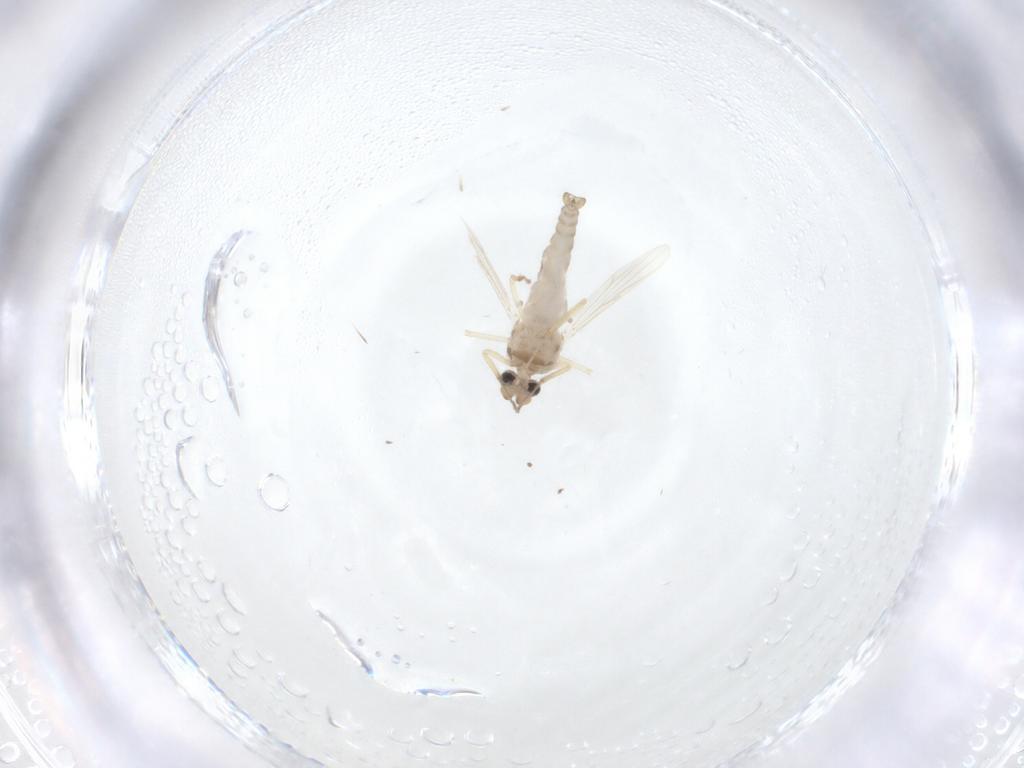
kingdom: Animalia
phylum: Arthropoda
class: Insecta
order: Diptera
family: Ceratopogonidae
